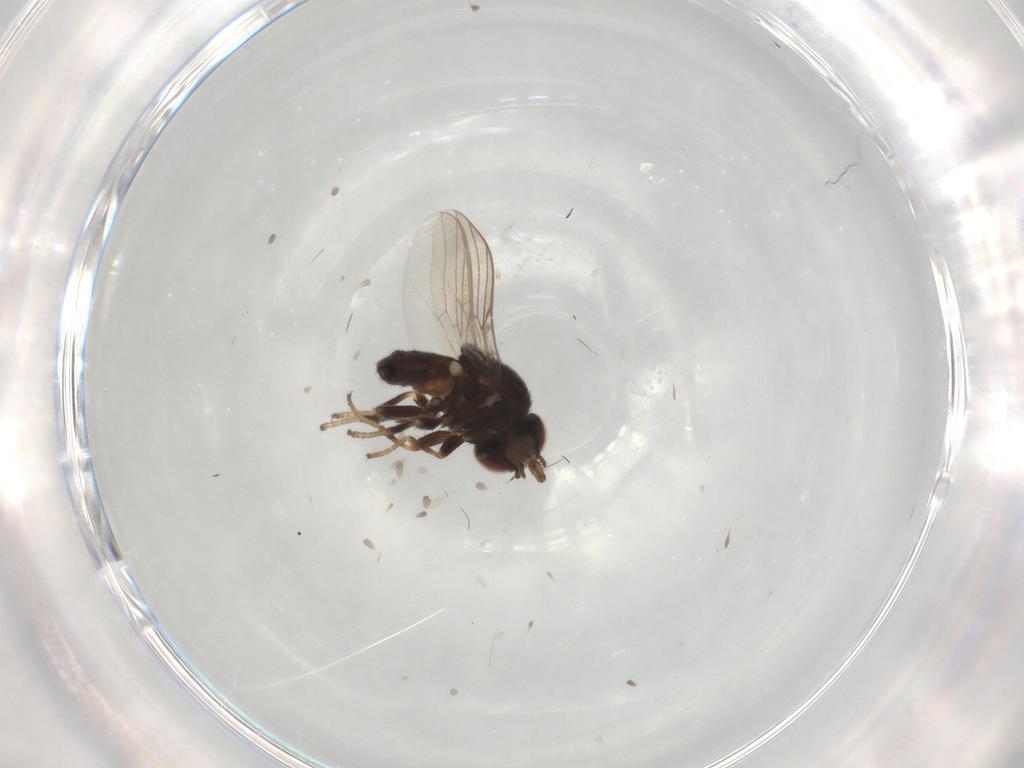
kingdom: Animalia
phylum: Arthropoda
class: Insecta
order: Diptera
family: Chloropidae
